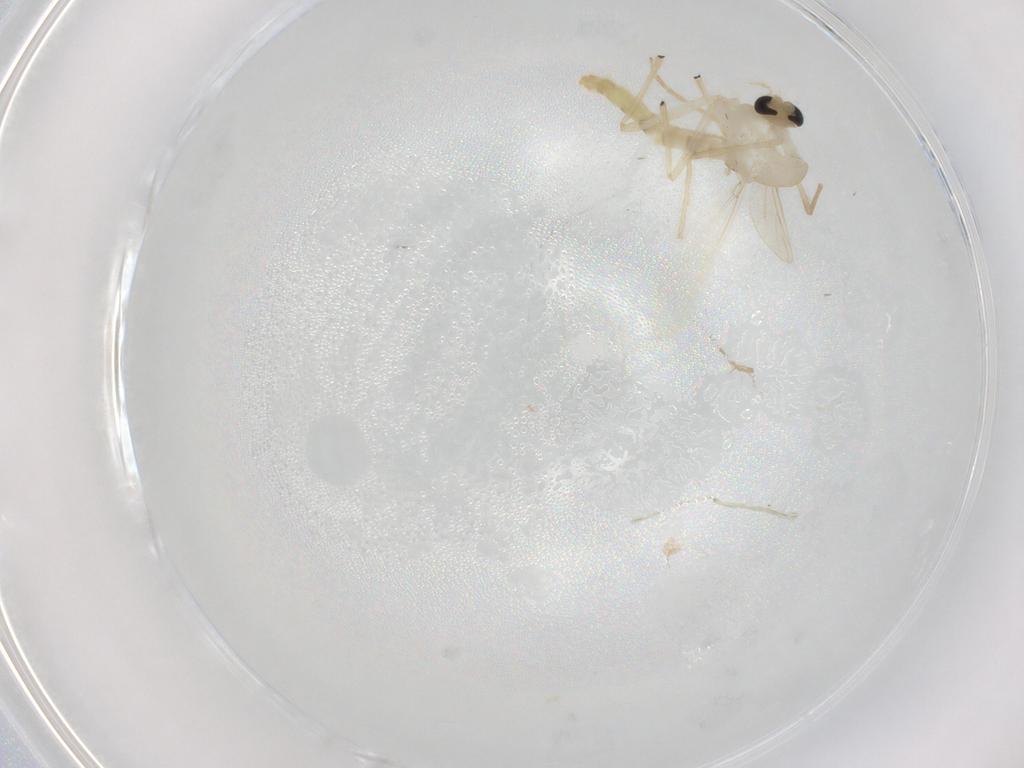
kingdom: Animalia
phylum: Arthropoda
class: Insecta
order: Diptera
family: Chironomidae
